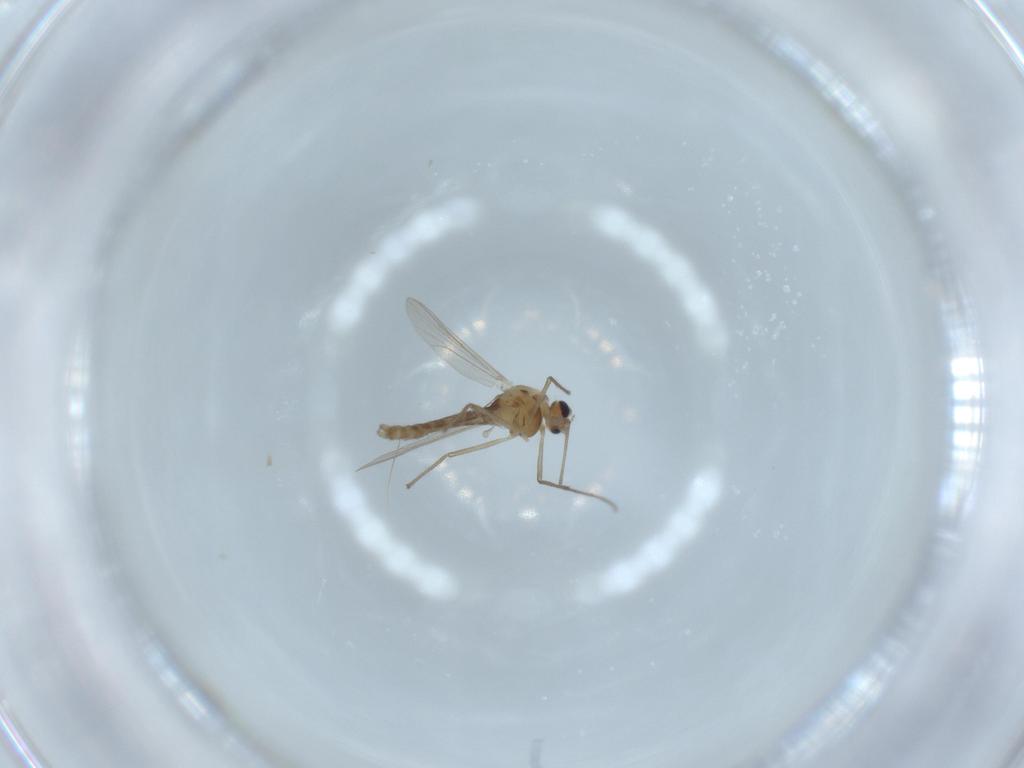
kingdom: Animalia
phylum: Arthropoda
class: Insecta
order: Diptera
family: Chironomidae
